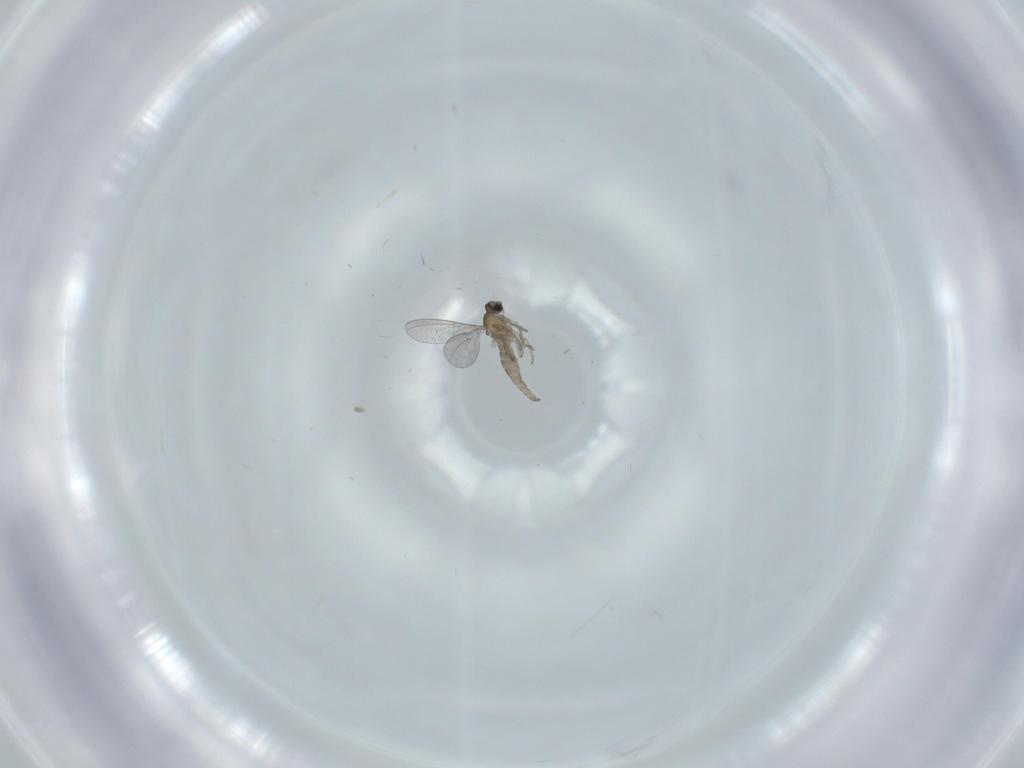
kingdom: Animalia
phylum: Arthropoda
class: Insecta
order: Diptera
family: Cecidomyiidae
